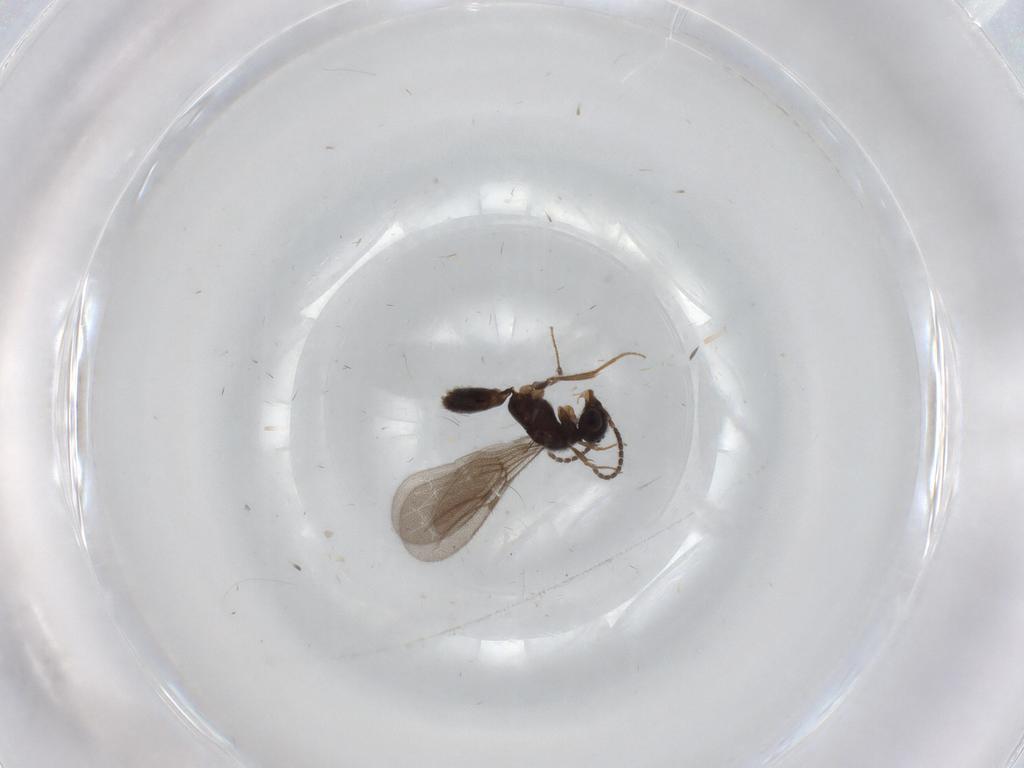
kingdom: Animalia
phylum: Arthropoda
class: Insecta
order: Hymenoptera
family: Bethylidae
